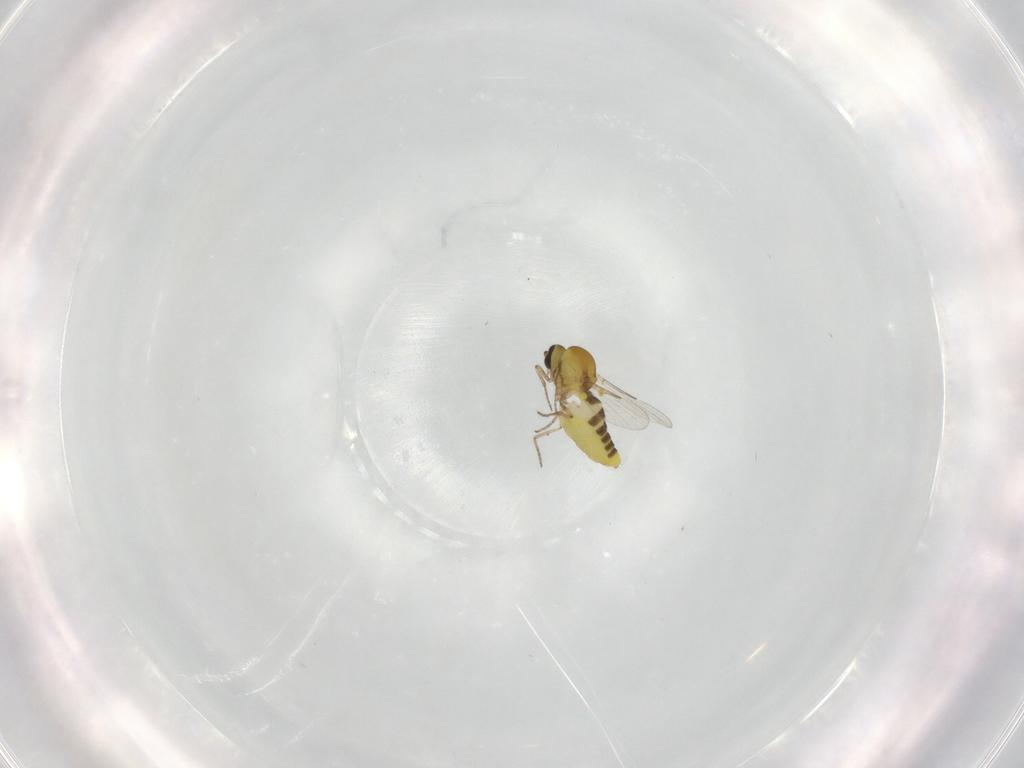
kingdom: Animalia
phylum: Arthropoda
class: Insecta
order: Diptera
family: Ceratopogonidae
